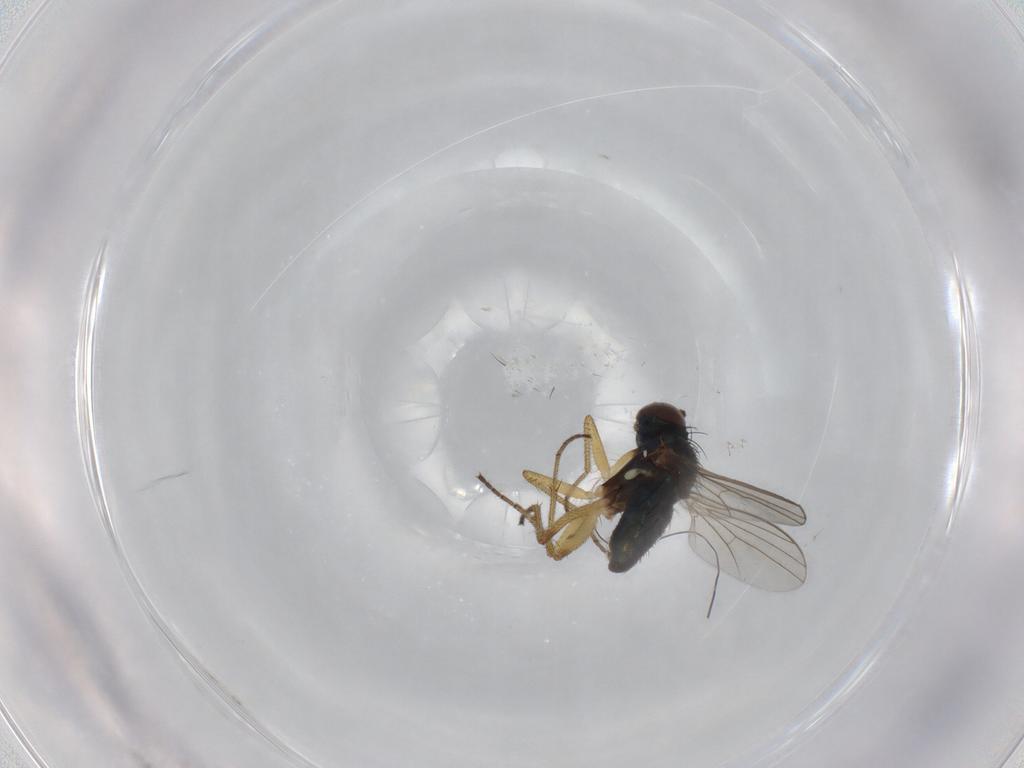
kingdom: Animalia
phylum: Arthropoda
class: Insecta
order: Diptera
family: Dolichopodidae
